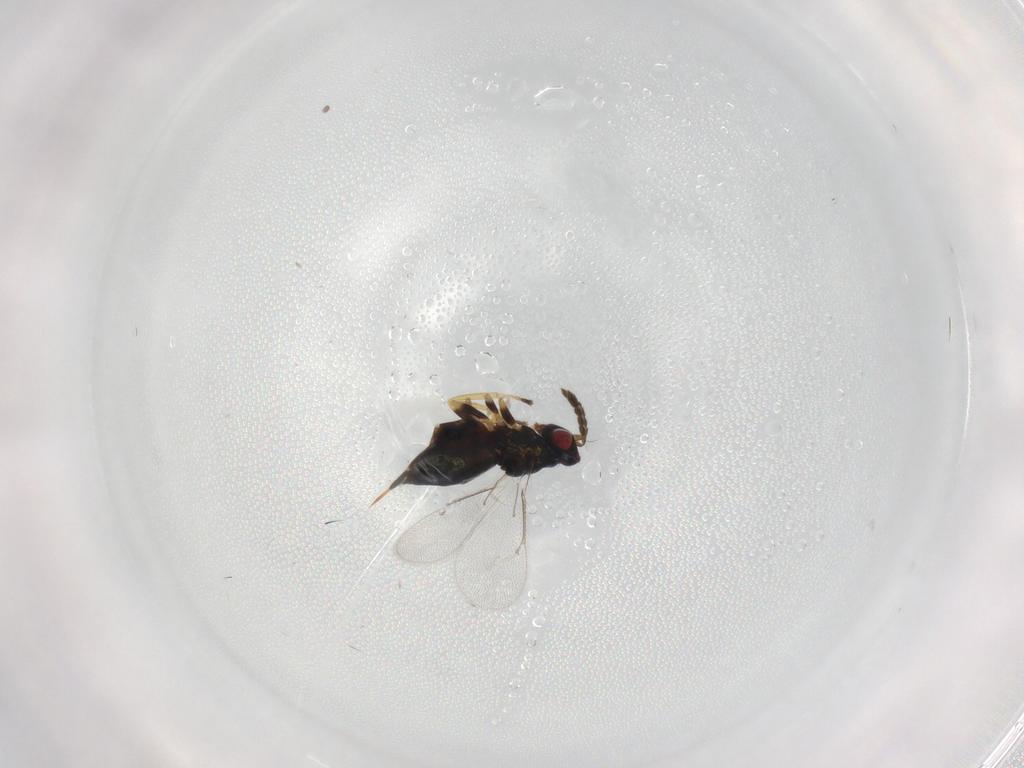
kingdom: Animalia
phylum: Arthropoda
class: Insecta
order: Hymenoptera
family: Eulophidae
